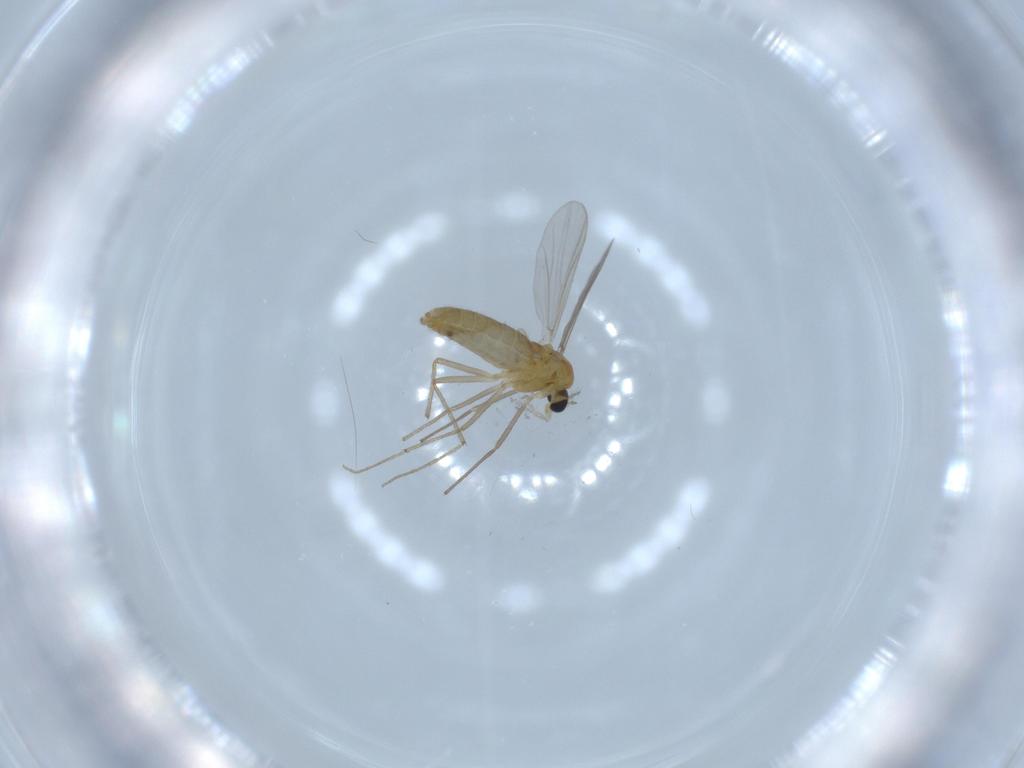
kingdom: Animalia
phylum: Arthropoda
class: Insecta
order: Diptera
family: Chironomidae
